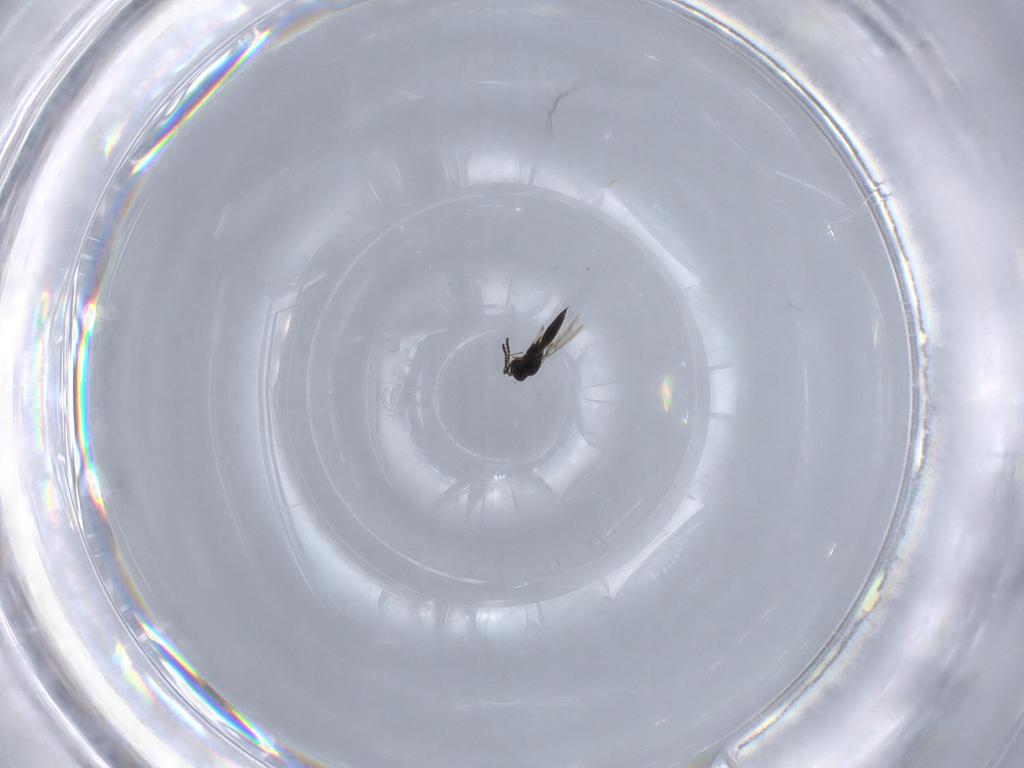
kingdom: Animalia
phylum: Arthropoda
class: Insecta
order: Hymenoptera
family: Scelionidae
